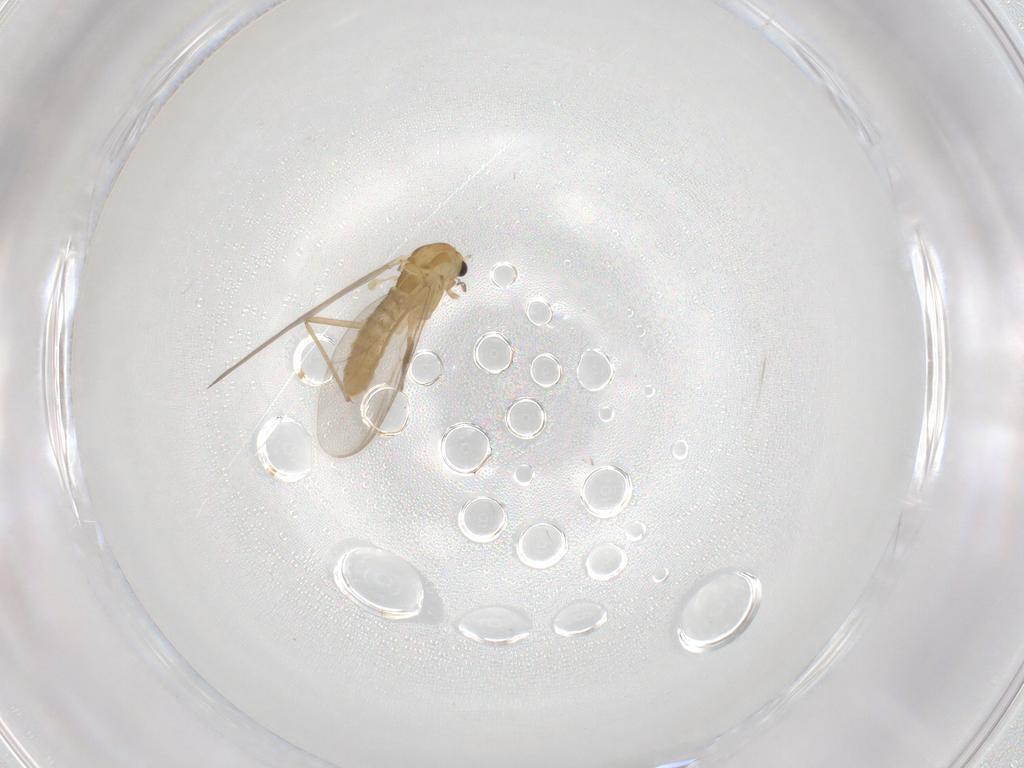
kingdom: Animalia
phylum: Arthropoda
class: Insecta
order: Diptera
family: Chironomidae
